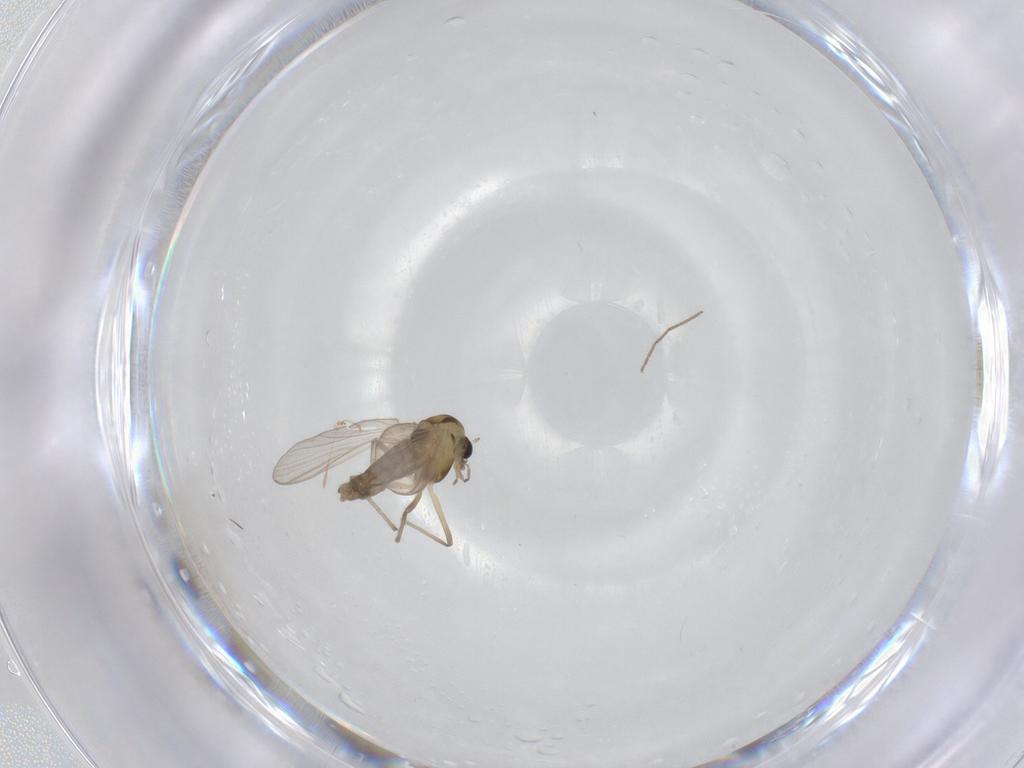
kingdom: Animalia
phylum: Arthropoda
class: Insecta
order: Diptera
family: Chironomidae
